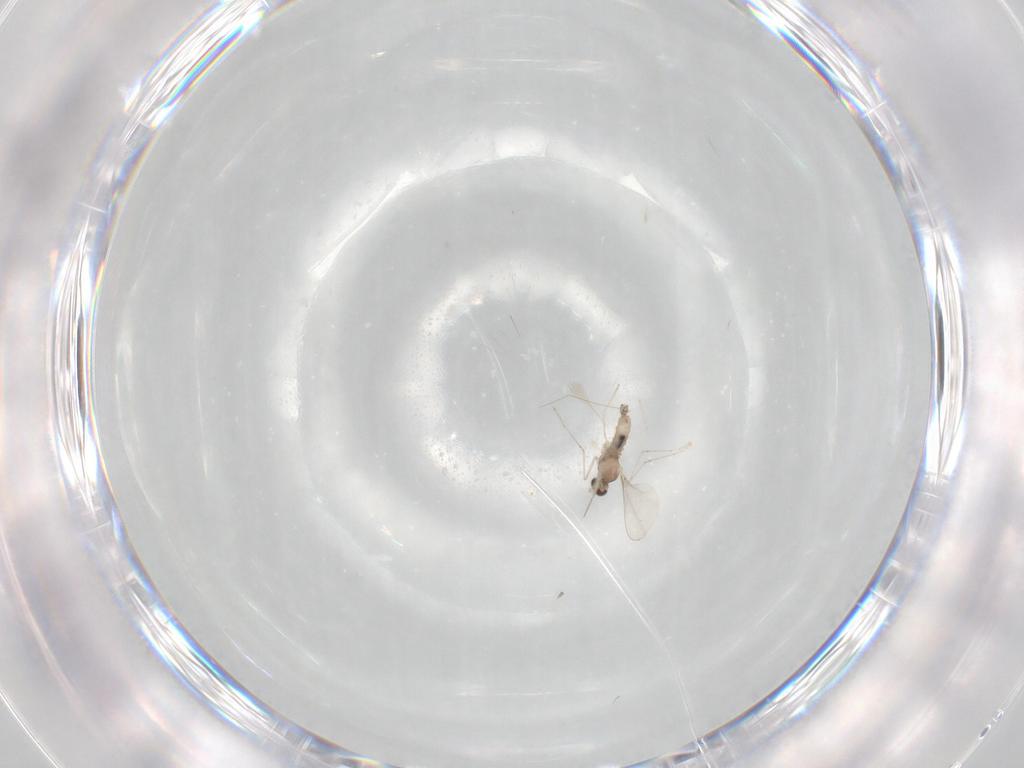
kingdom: Animalia
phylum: Arthropoda
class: Insecta
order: Diptera
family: Cecidomyiidae
